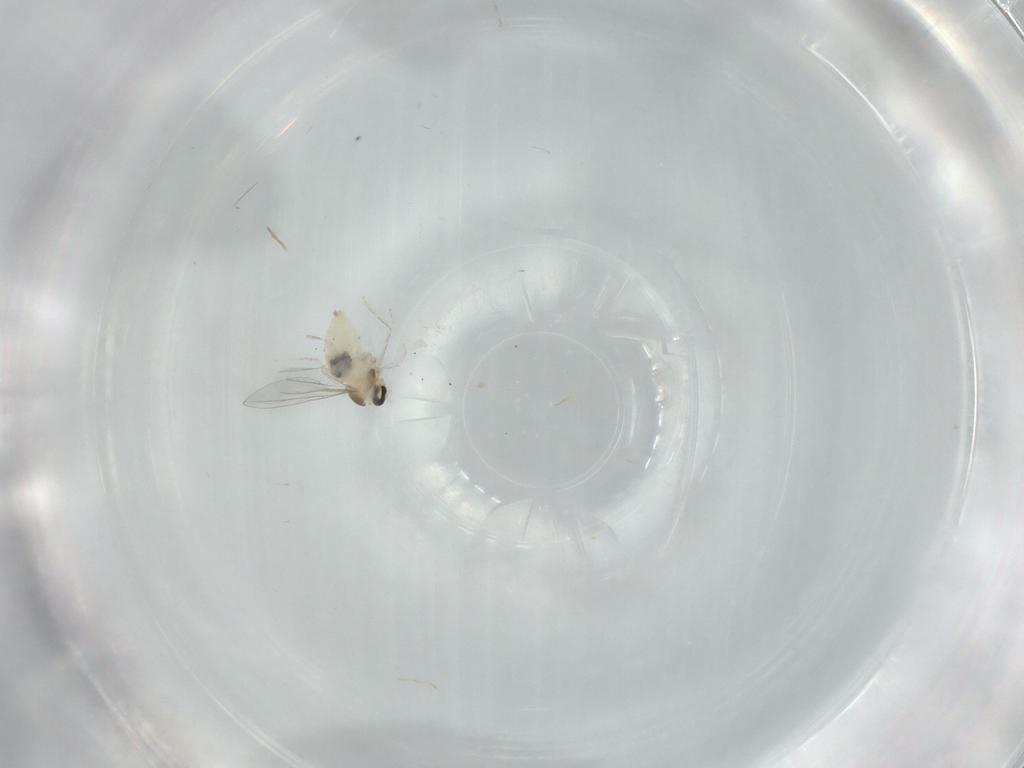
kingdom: Animalia
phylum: Arthropoda
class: Insecta
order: Diptera
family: Cecidomyiidae
